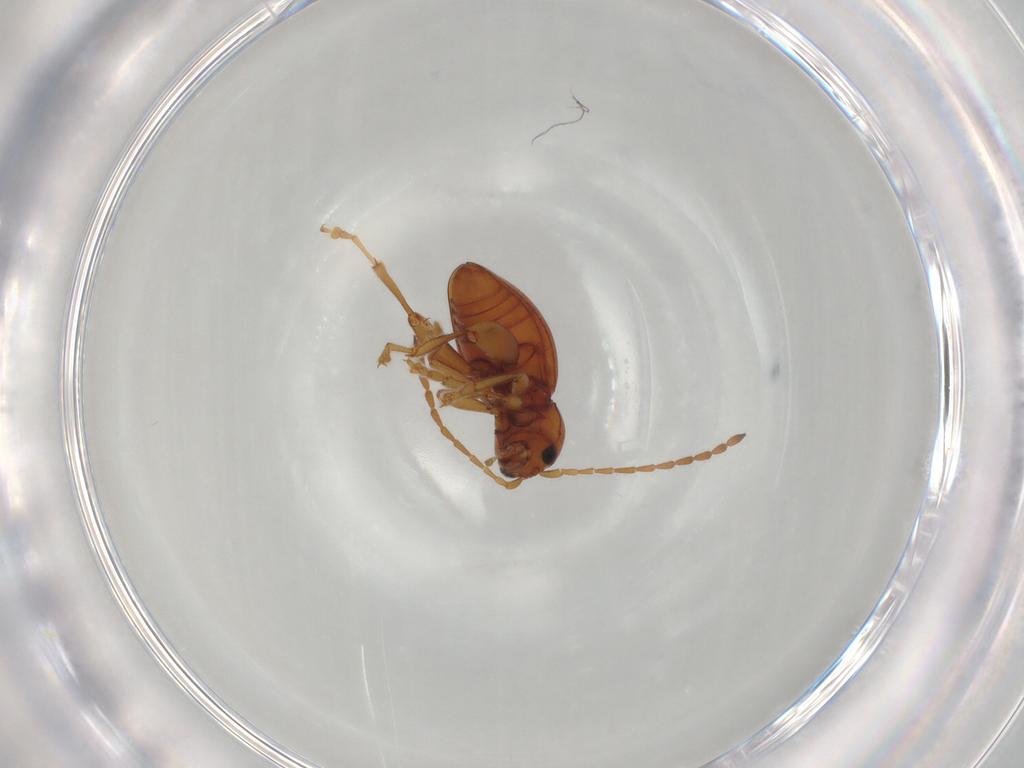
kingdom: Animalia
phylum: Arthropoda
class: Insecta
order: Coleoptera
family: Chrysomelidae
